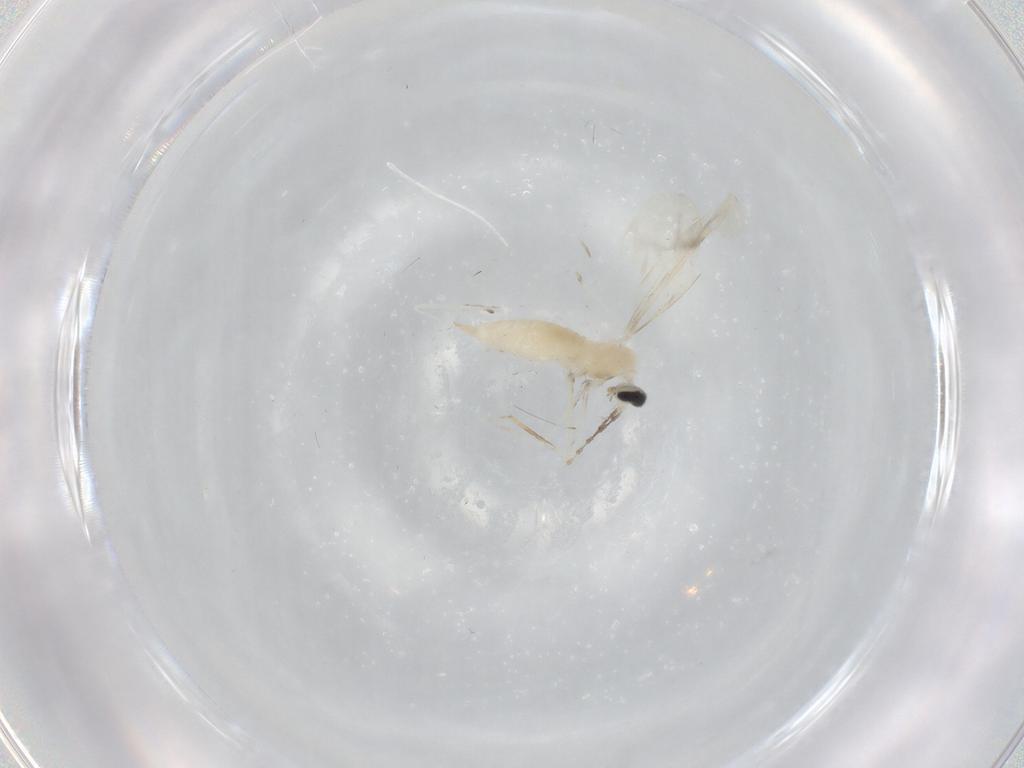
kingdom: Animalia
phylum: Arthropoda
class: Insecta
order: Diptera
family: Cecidomyiidae
